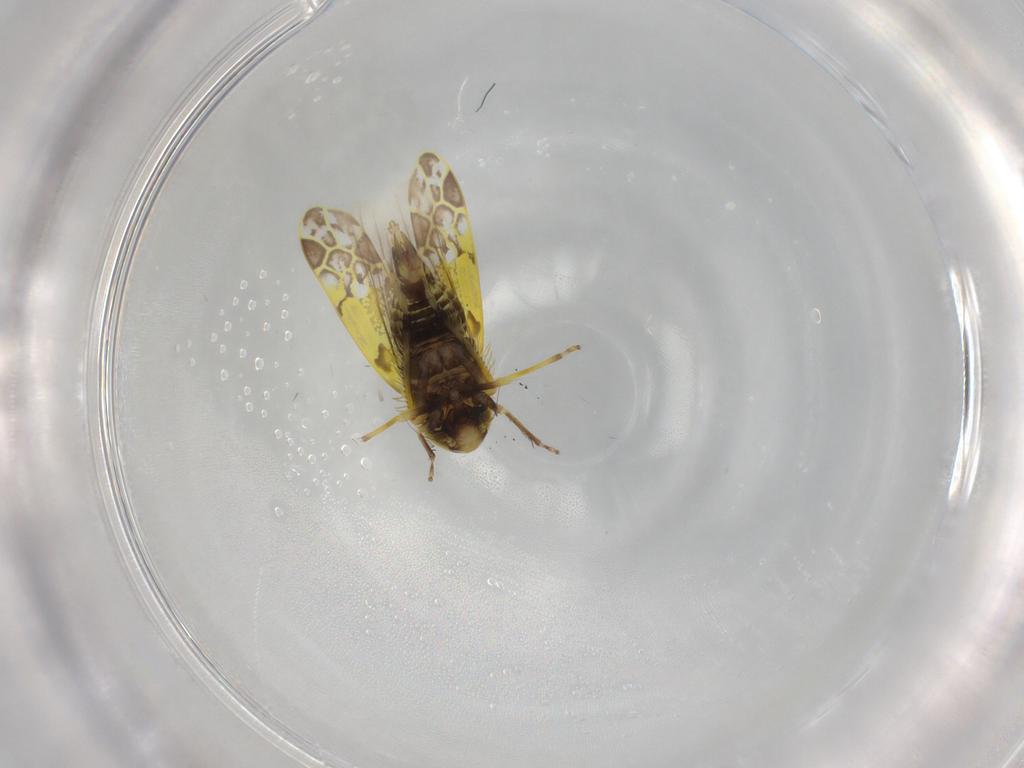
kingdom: Animalia
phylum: Arthropoda
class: Insecta
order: Hemiptera
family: Cicadellidae
